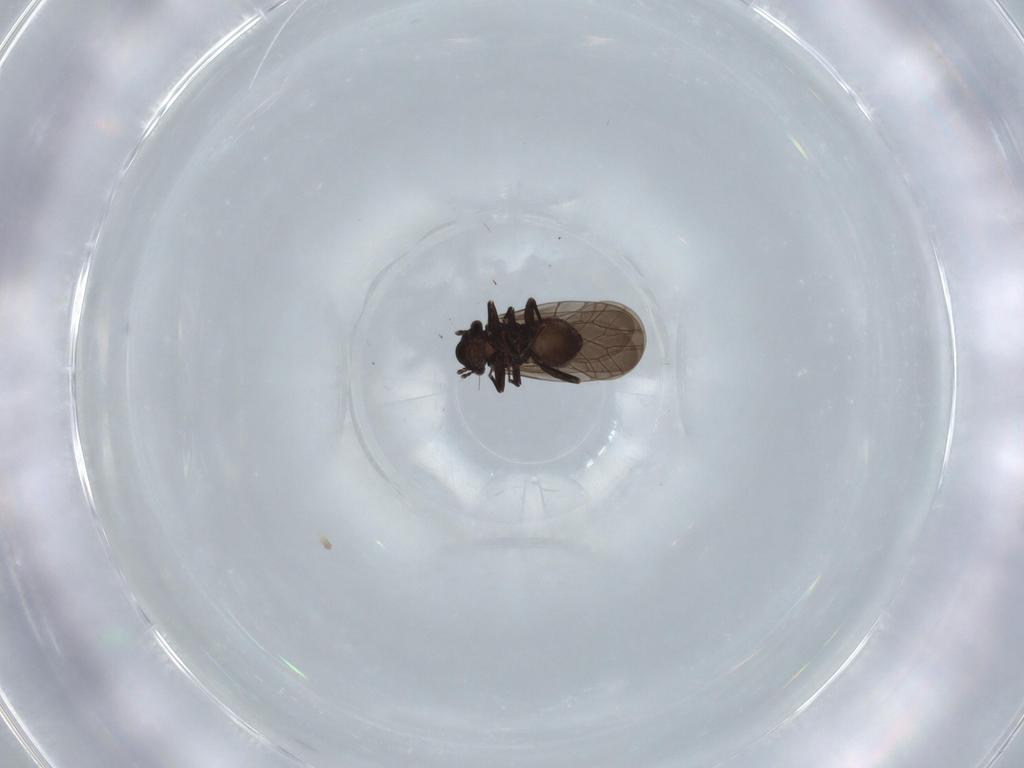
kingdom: Animalia
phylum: Arthropoda
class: Insecta
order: Psocodea
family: Lepidopsocidae
